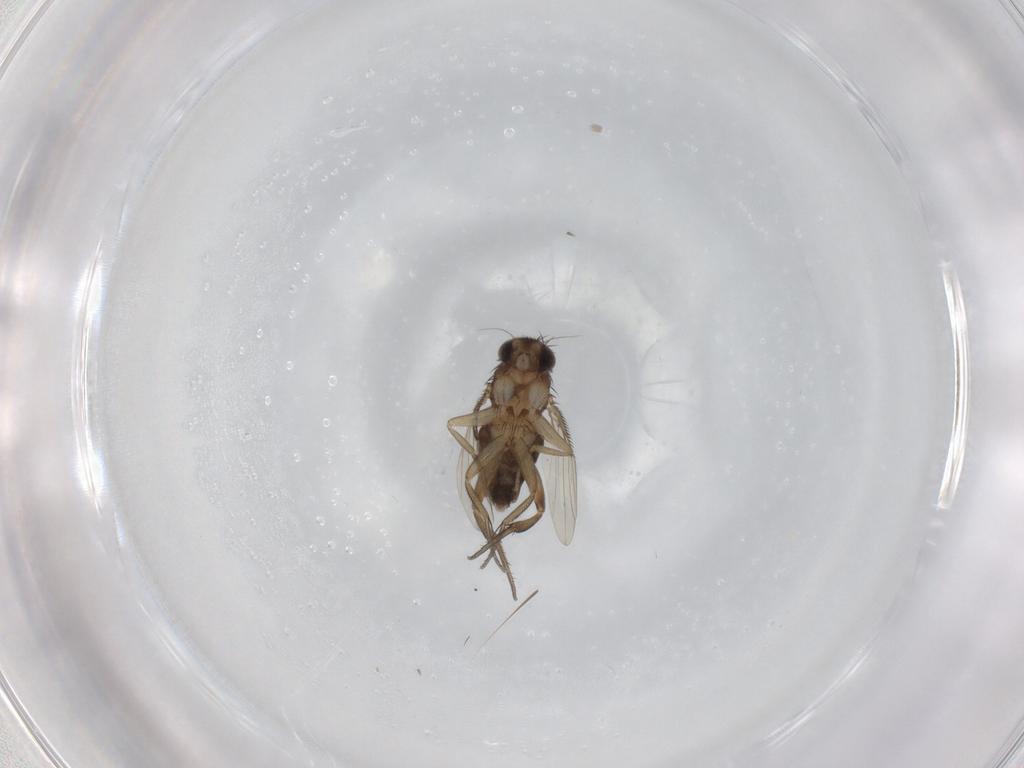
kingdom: Animalia
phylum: Arthropoda
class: Insecta
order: Diptera
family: Phoridae
